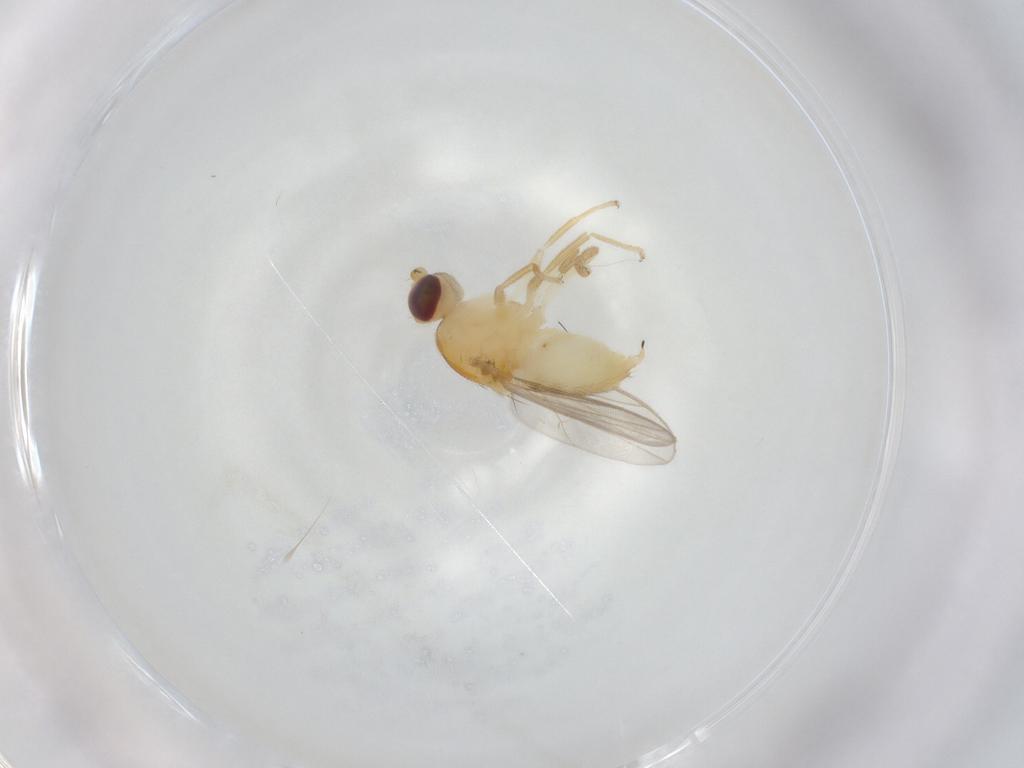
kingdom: Animalia
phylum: Arthropoda
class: Insecta
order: Diptera
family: Chloropidae
